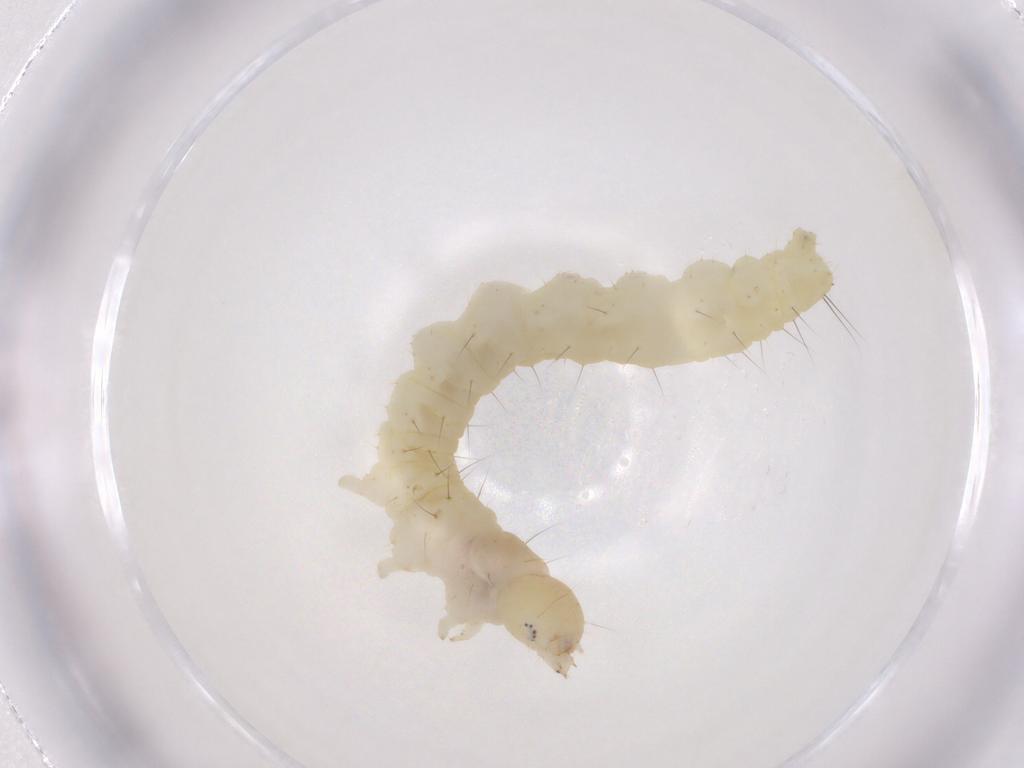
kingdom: Animalia
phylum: Arthropoda
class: Insecta
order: Lepidoptera
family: Gelechiidae
